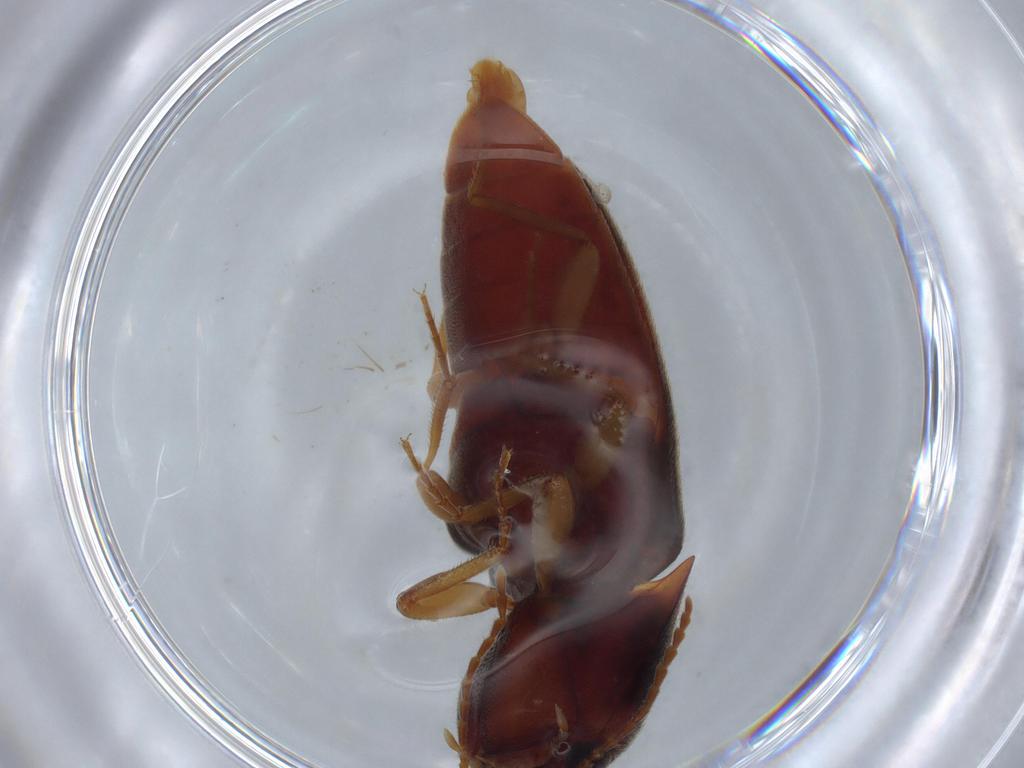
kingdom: Animalia
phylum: Arthropoda
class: Insecta
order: Coleoptera
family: Elateridae
